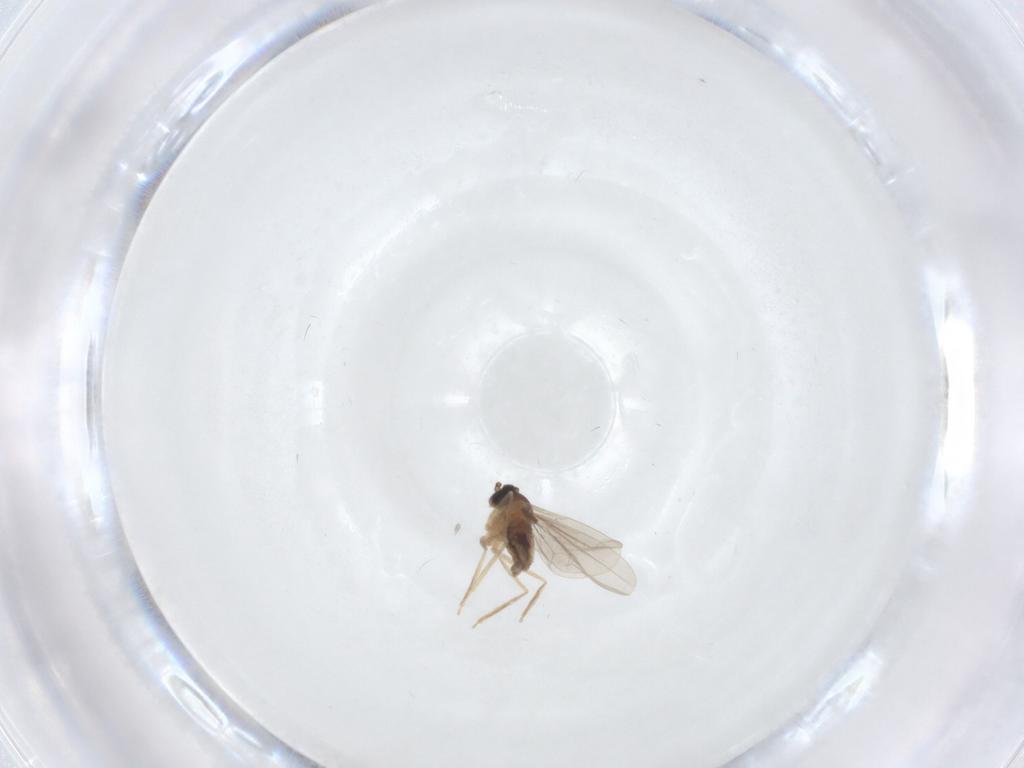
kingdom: Animalia
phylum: Arthropoda
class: Insecta
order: Diptera
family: Cecidomyiidae
